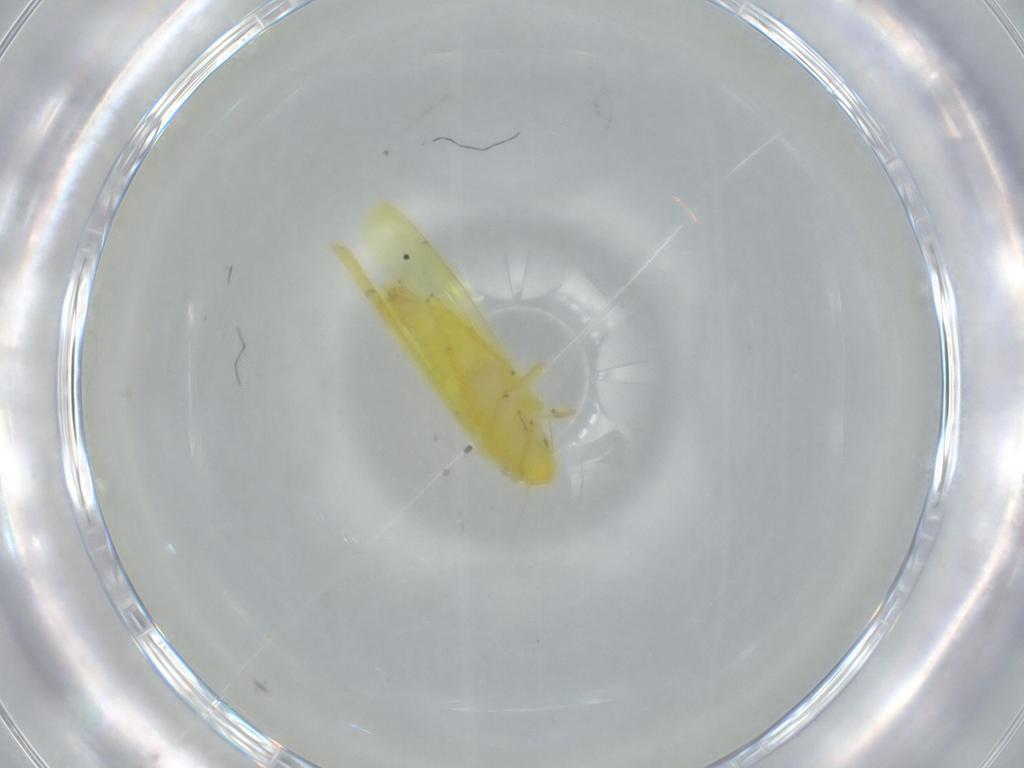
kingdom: Animalia
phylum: Arthropoda
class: Insecta
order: Hemiptera
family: Cicadellidae
